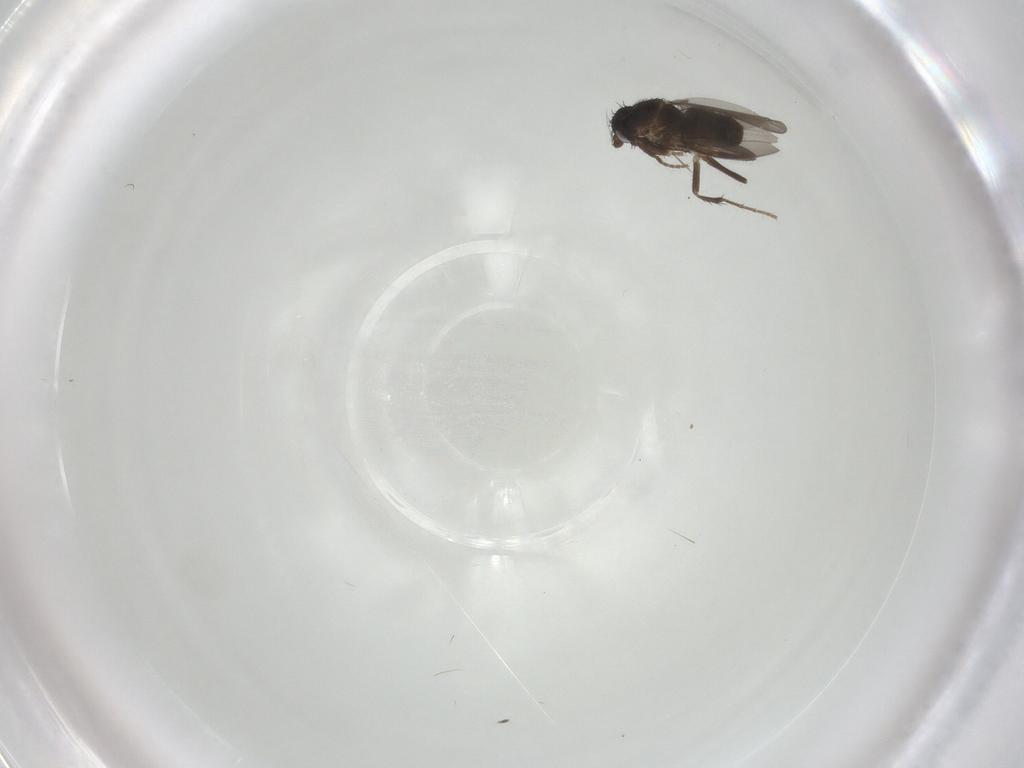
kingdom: Animalia
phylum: Arthropoda
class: Insecta
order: Diptera
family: Sphaeroceridae
